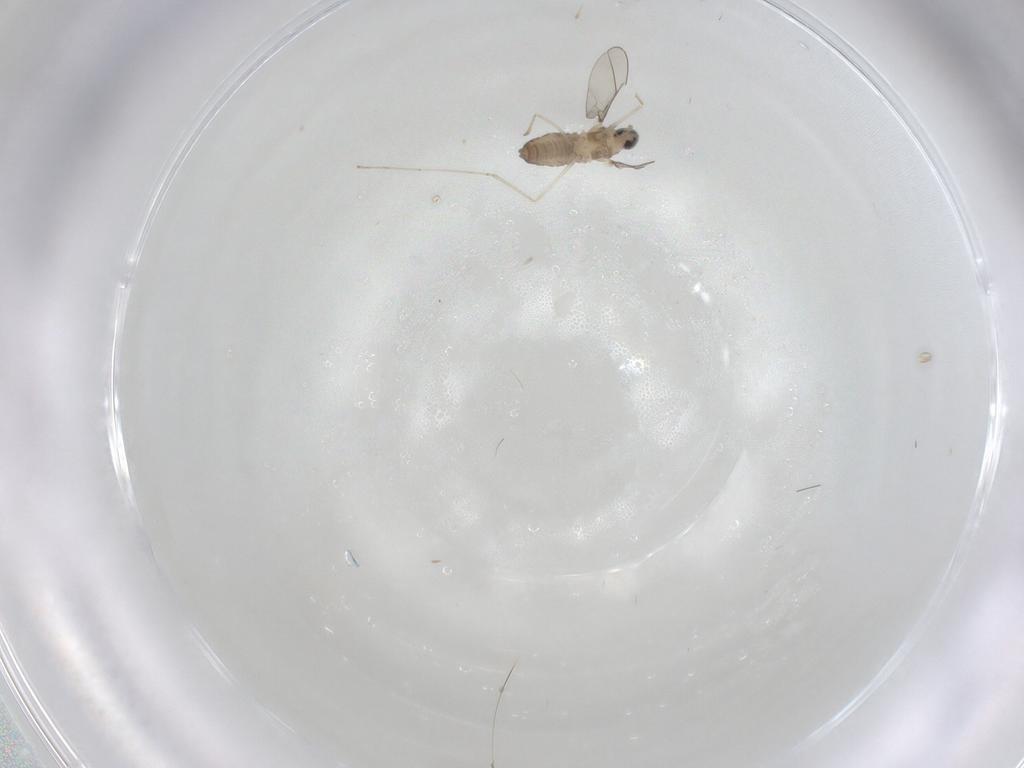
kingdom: Animalia
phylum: Arthropoda
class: Insecta
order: Diptera
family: Cecidomyiidae
